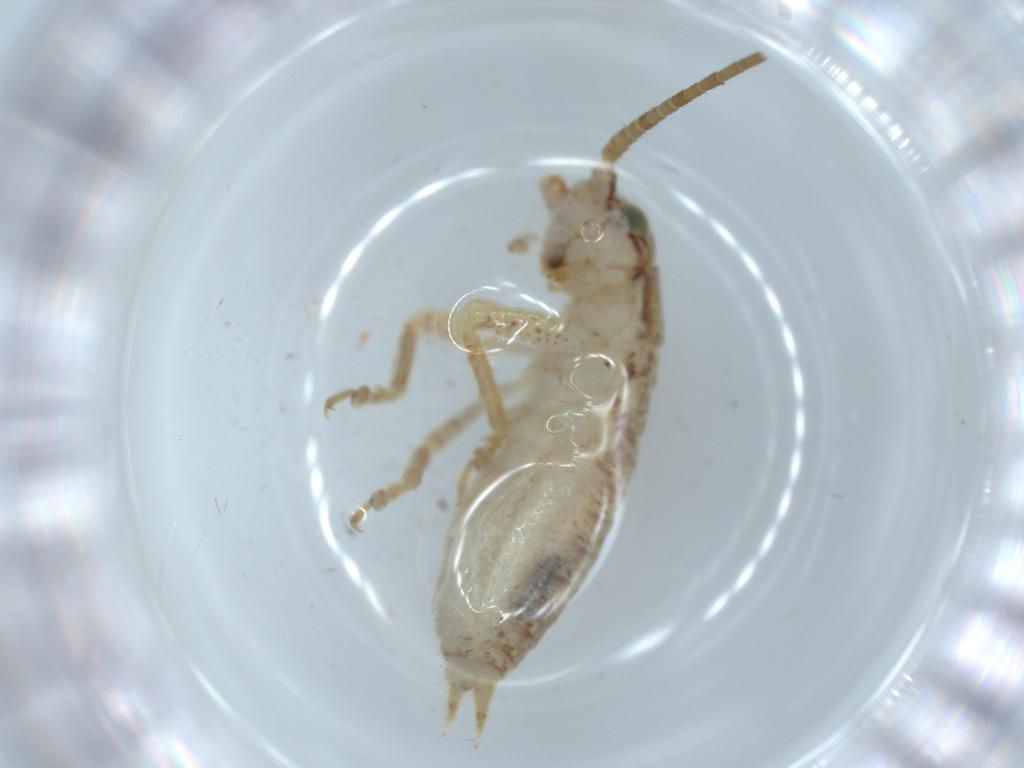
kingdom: Animalia
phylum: Arthropoda
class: Insecta
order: Orthoptera
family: Gryllidae
